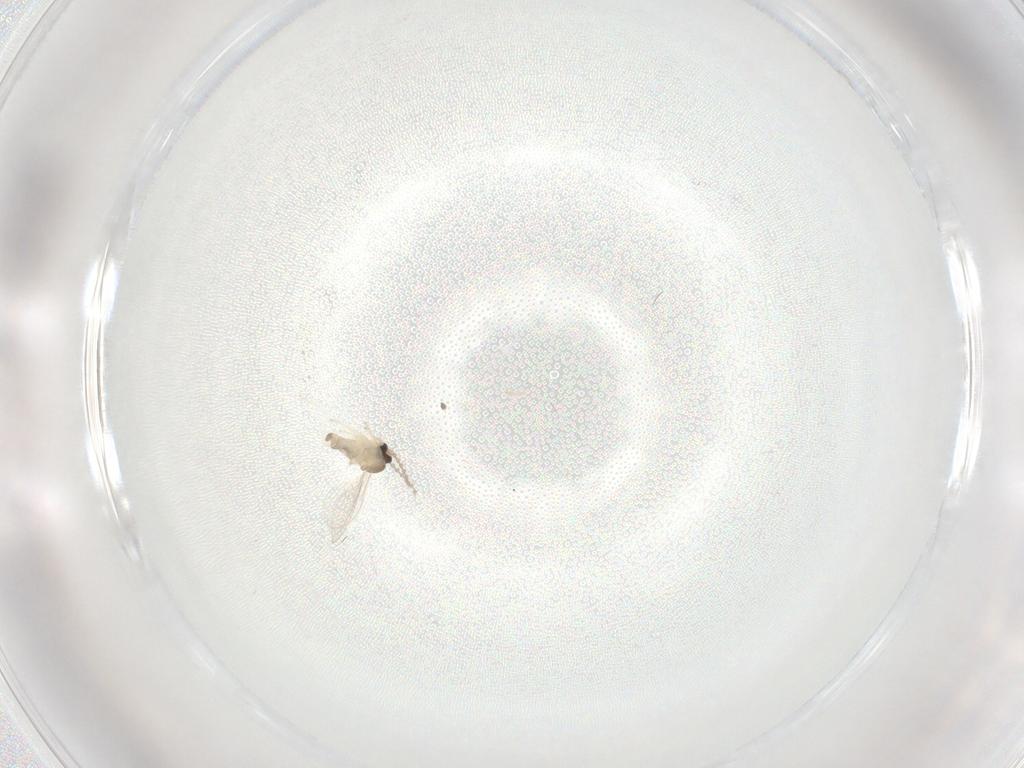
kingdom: Animalia
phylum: Arthropoda
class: Insecta
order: Diptera
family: Cecidomyiidae
